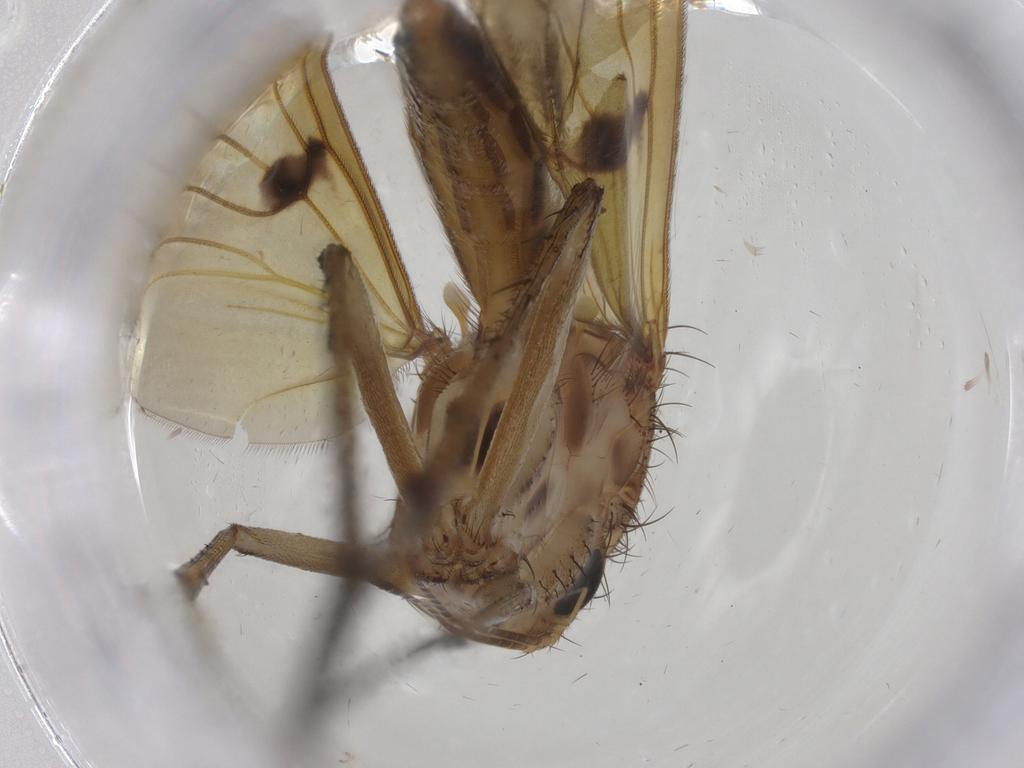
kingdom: Animalia
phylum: Arthropoda
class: Insecta
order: Diptera
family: Mycetophilidae
